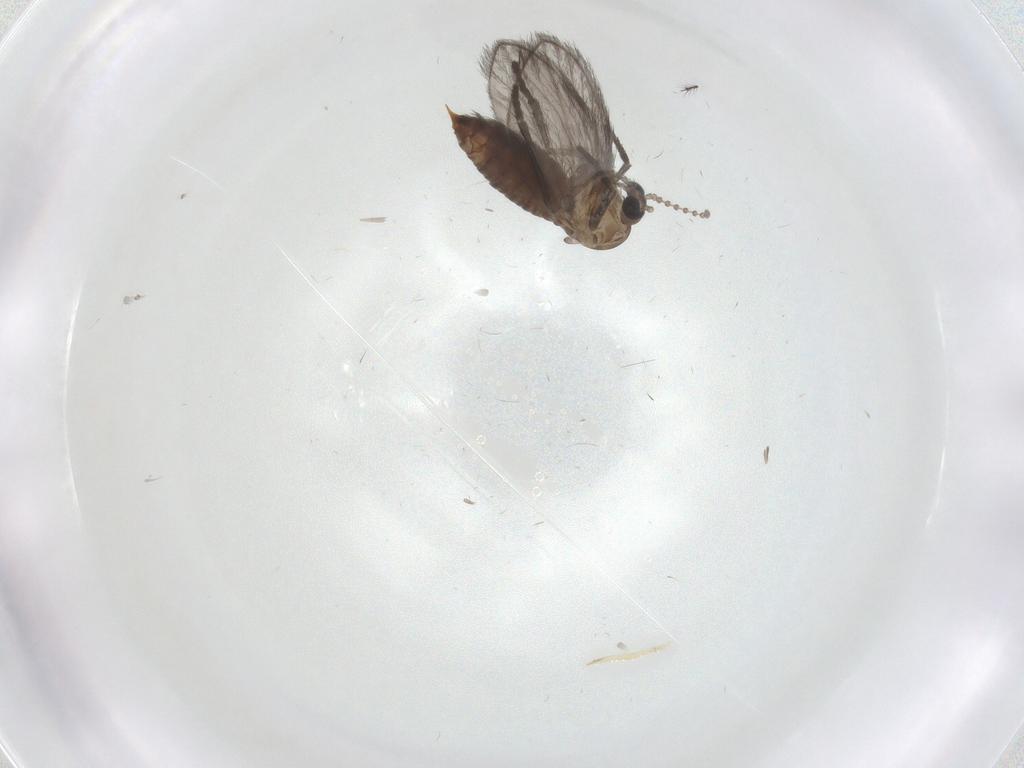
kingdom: Animalia
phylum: Arthropoda
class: Insecta
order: Diptera
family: Psychodidae
